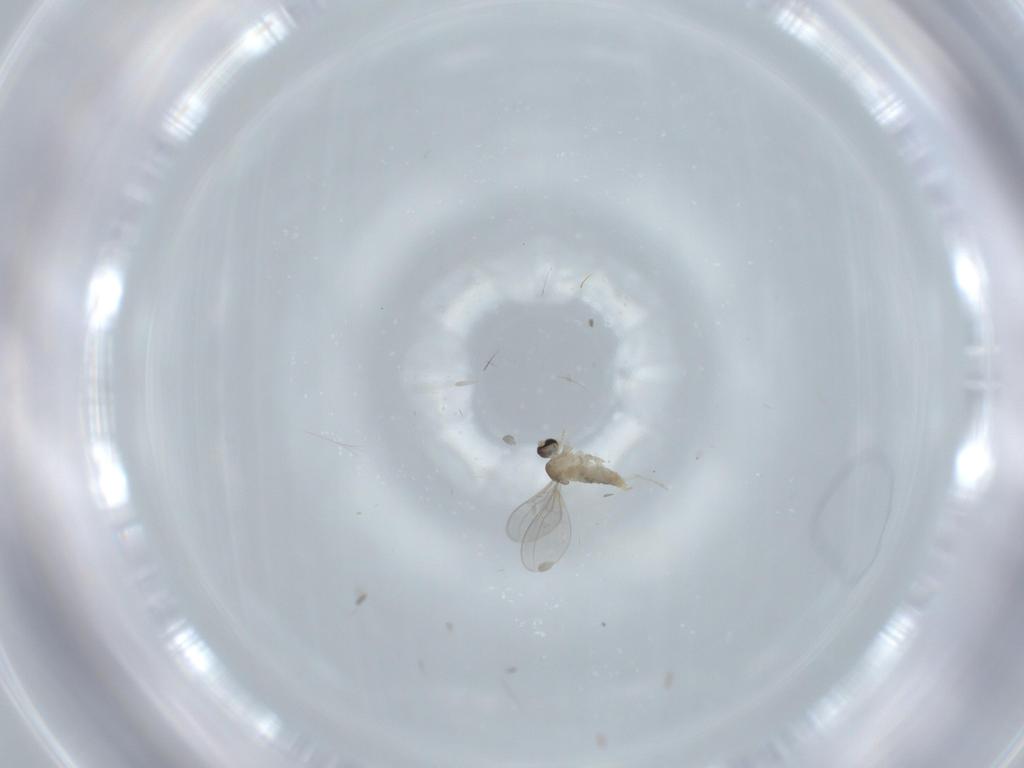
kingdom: Animalia
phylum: Arthropoda
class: Insecta
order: Diptera
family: Cecidomyiidae
